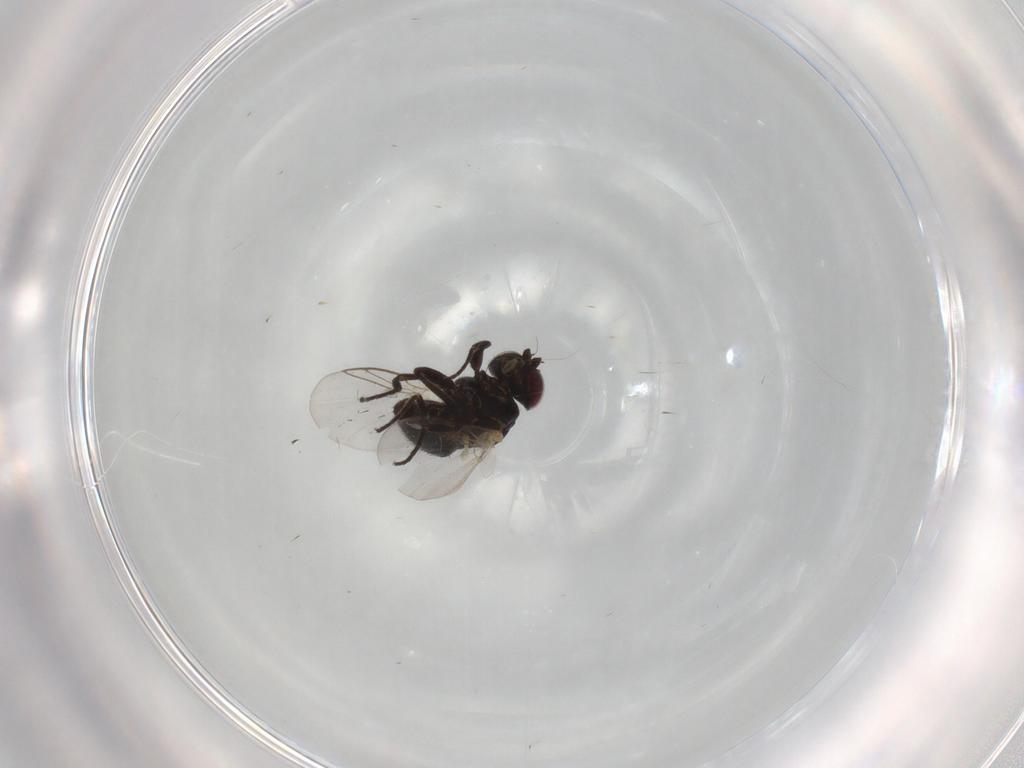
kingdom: Animalia
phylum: Arthropoda
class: Insecta
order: Diptera
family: Agromyzidae
